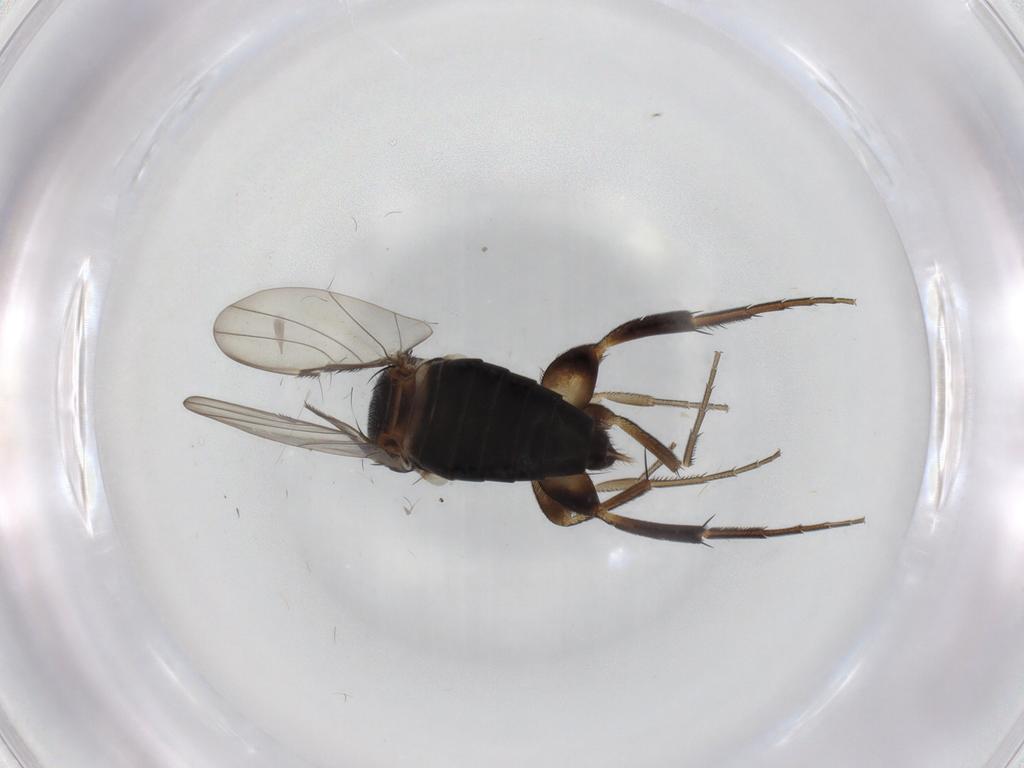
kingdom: Animalia
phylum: Arthropoda
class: Insecta
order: Diptera
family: Phoridae
